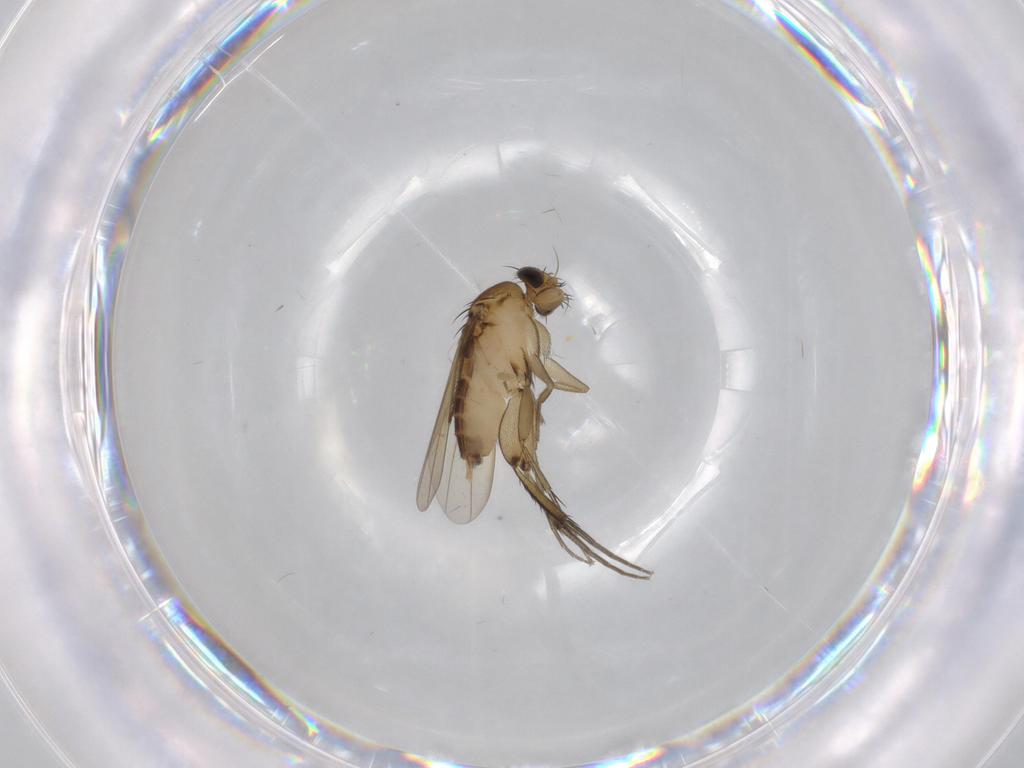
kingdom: Animalia
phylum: Arthropoda
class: Insecta
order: Diptera
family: Phoridae
